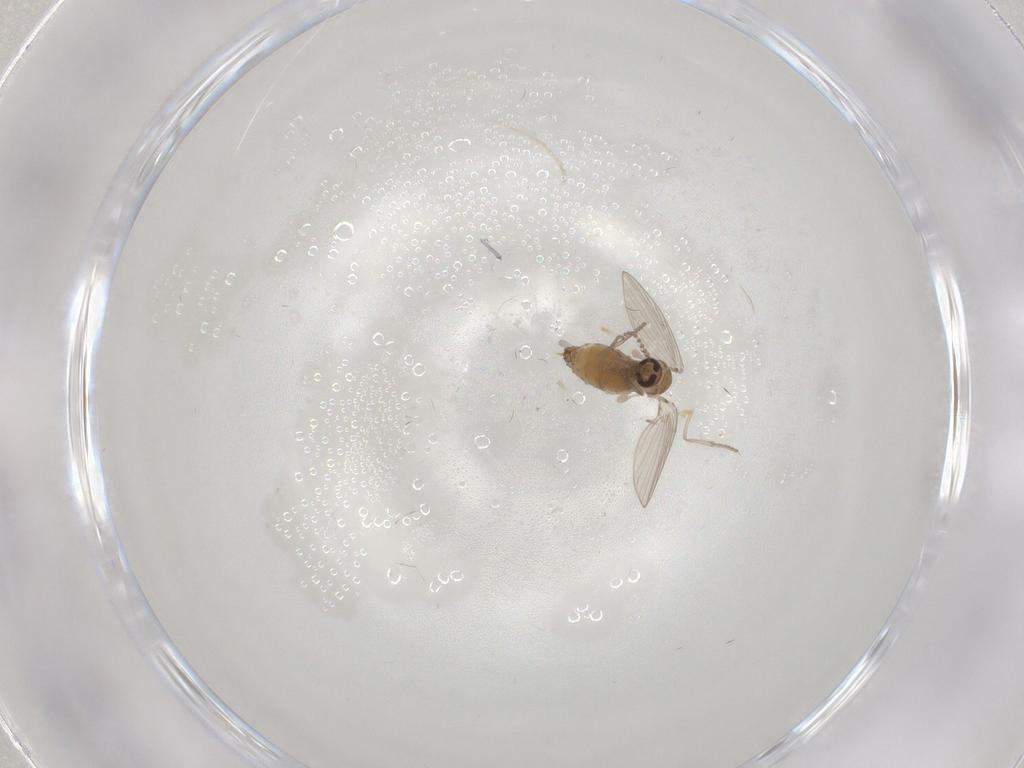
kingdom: Animalia
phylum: Arthropoda
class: Insecta
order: Diptera
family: Psychodidae
